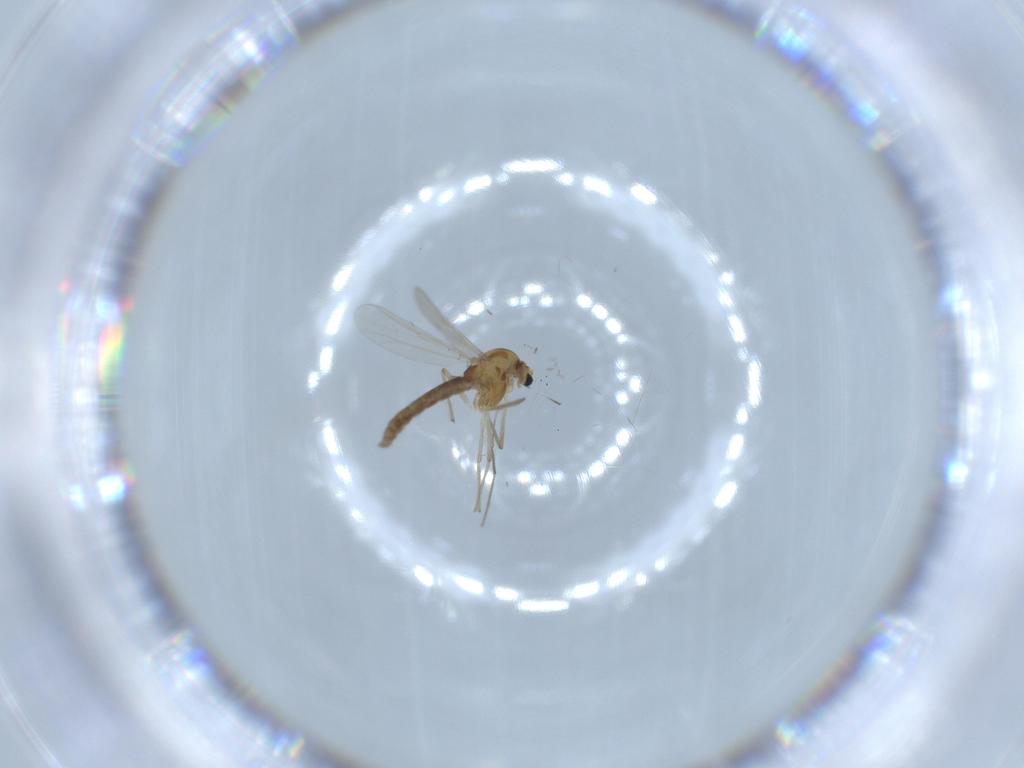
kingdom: Animalia
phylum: Arthropoda
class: Insecta
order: Diptera
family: Chironomidae
